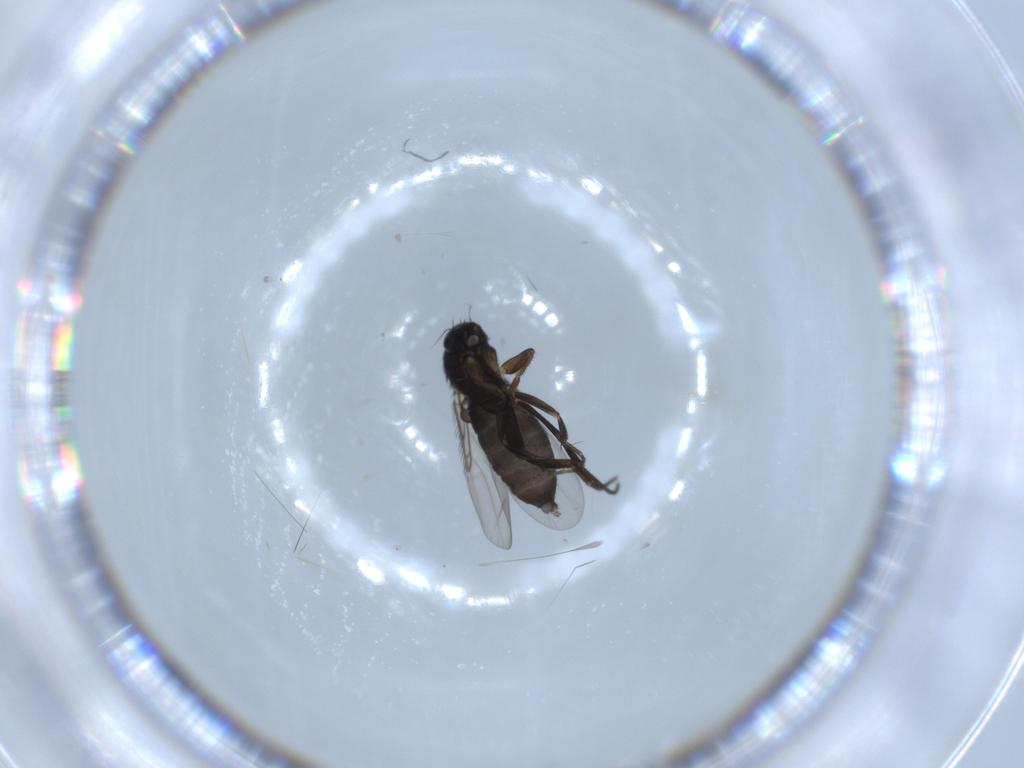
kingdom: Animalia
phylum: Arthropoda
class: Insecta
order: Diptera
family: Phoridae
